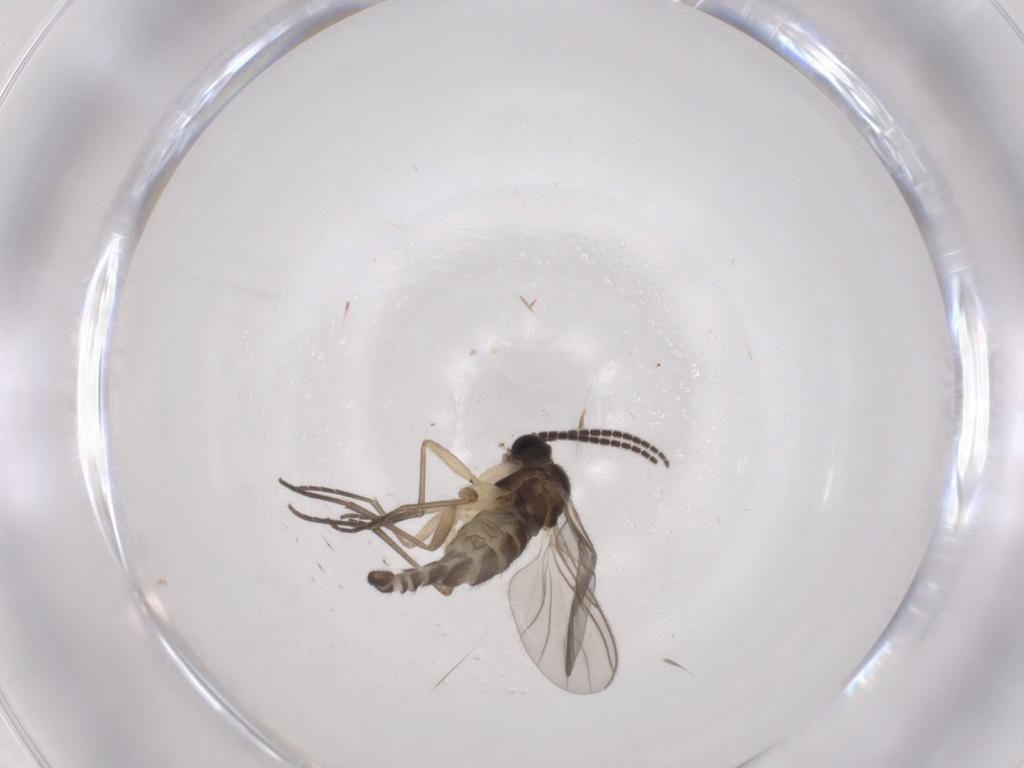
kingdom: Animalia
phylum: Arthropoda
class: Insecta
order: Diptera
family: Sciaridae
